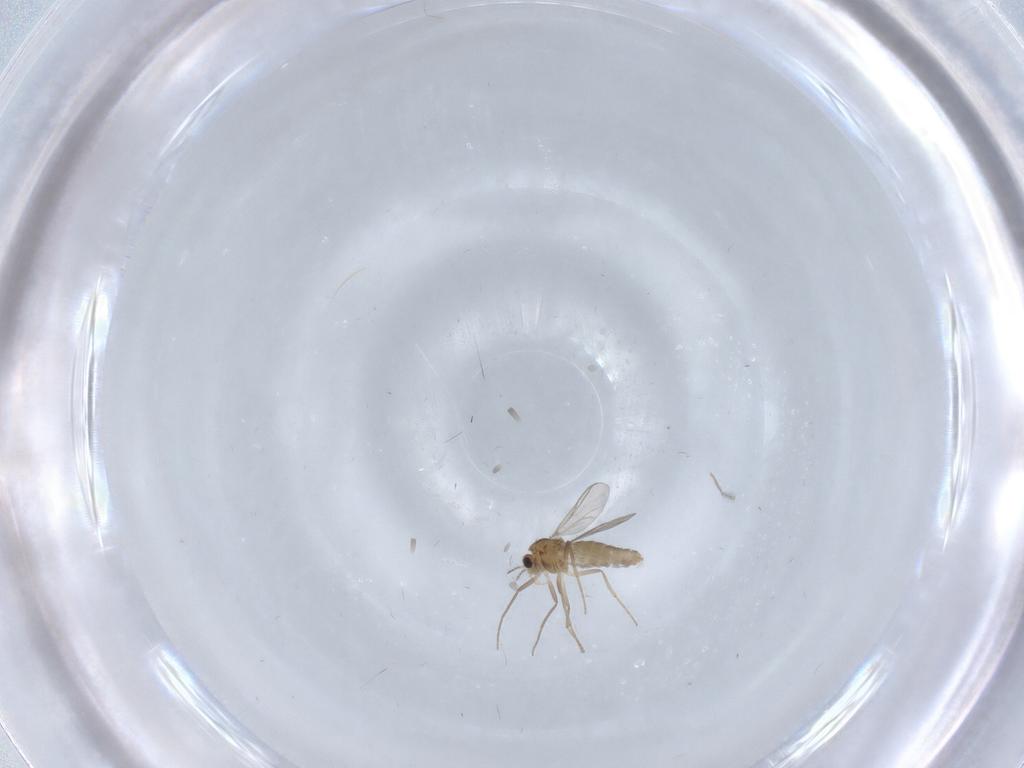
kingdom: Animalia
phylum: Arthropoda
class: Insecta
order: Diptera
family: Chironomidae
